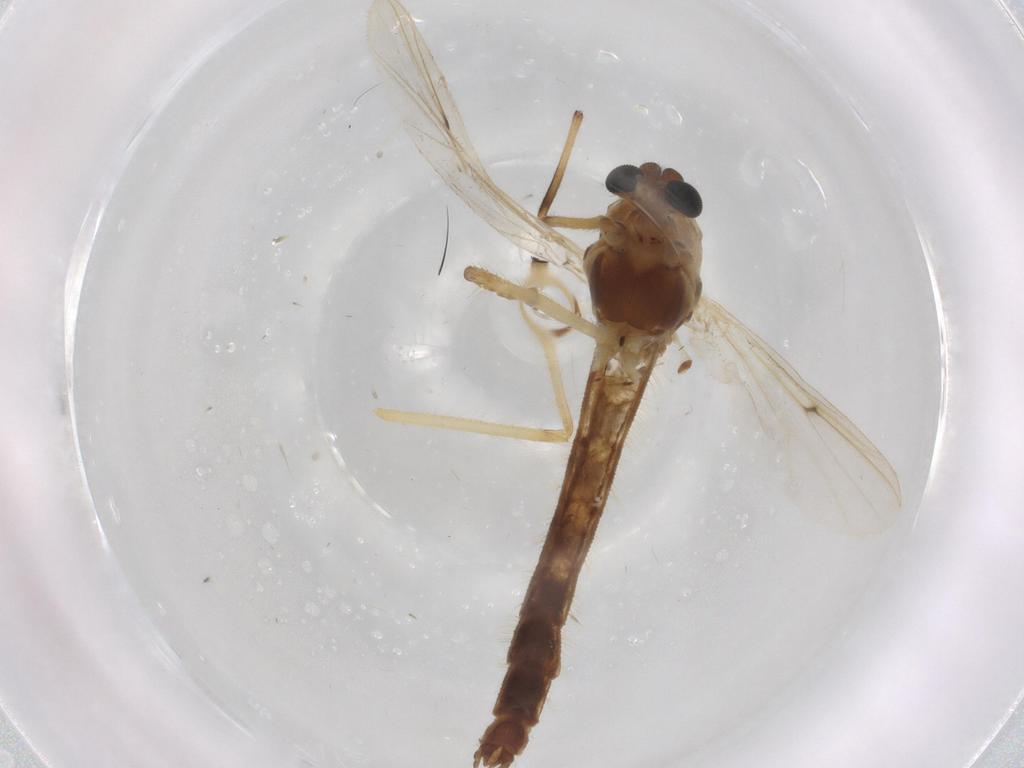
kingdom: Animalia
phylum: Arthropoda
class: Insecta
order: Diptera
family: Chironomidae
